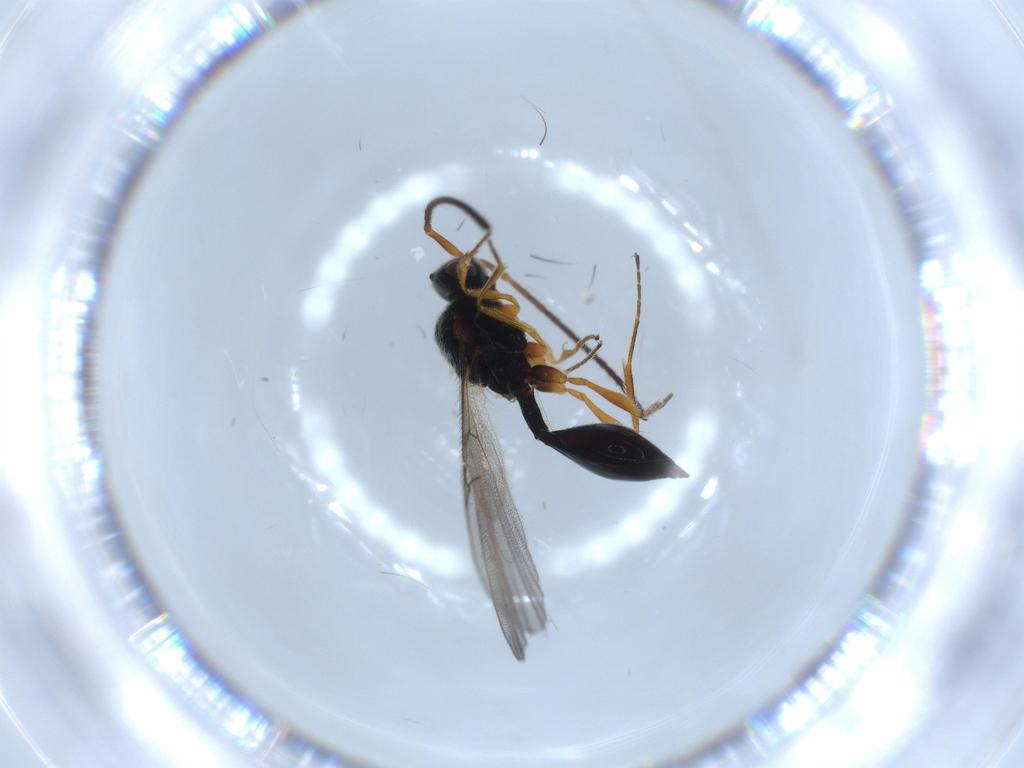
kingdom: Animalia
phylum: Arthropoda
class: Insecta
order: Hymenoptera
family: Diapriidae
